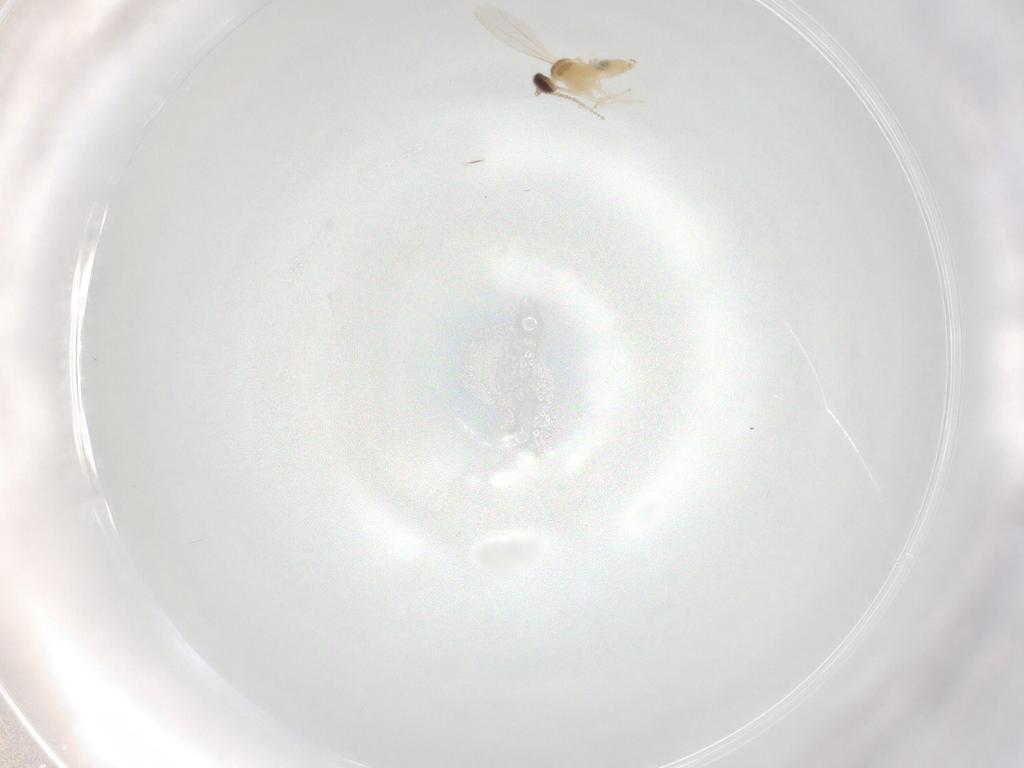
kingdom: Animalia
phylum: Arthropoda
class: Insecta
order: Diptera
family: Cecidomyiidae
